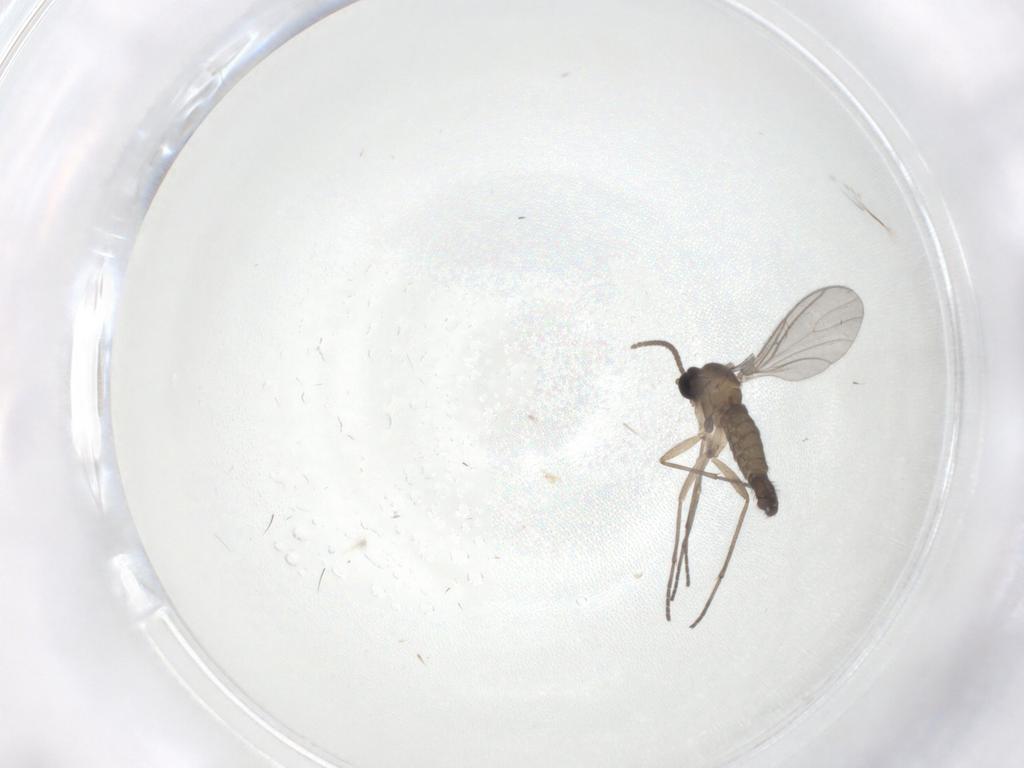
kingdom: Animalia
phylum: Arthropoda
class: Insecta
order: Diptera
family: Sciaridae
